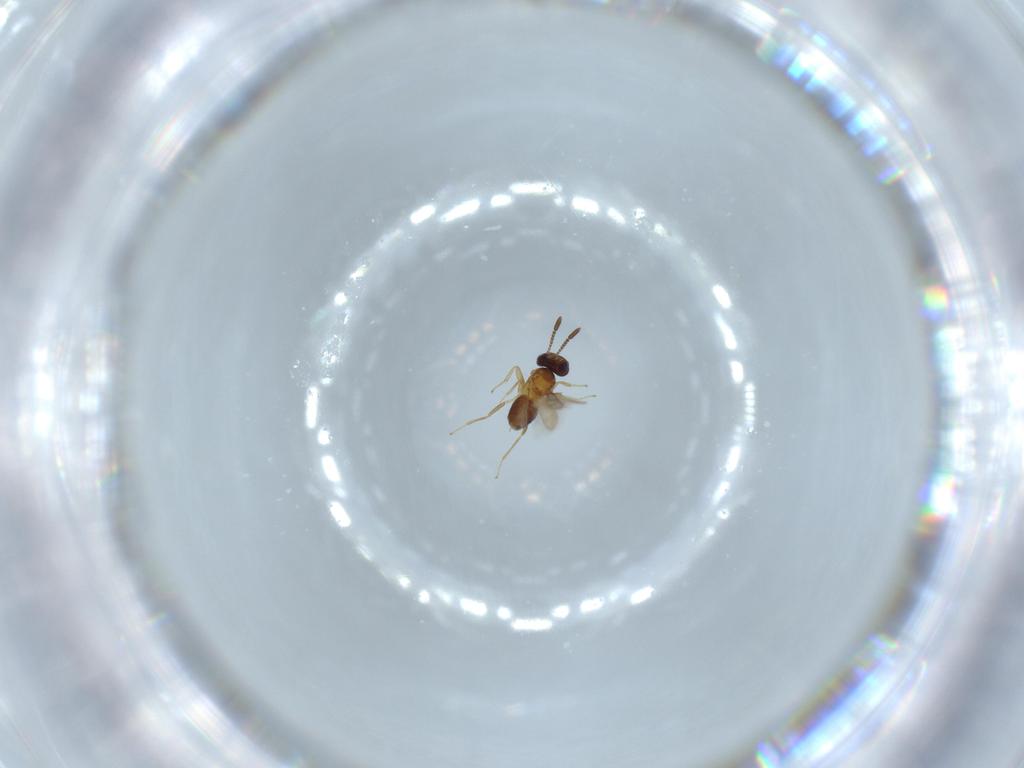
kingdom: Animalia
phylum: Arthropoda
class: Insecta
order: Hymenoptera
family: Mymaridae
